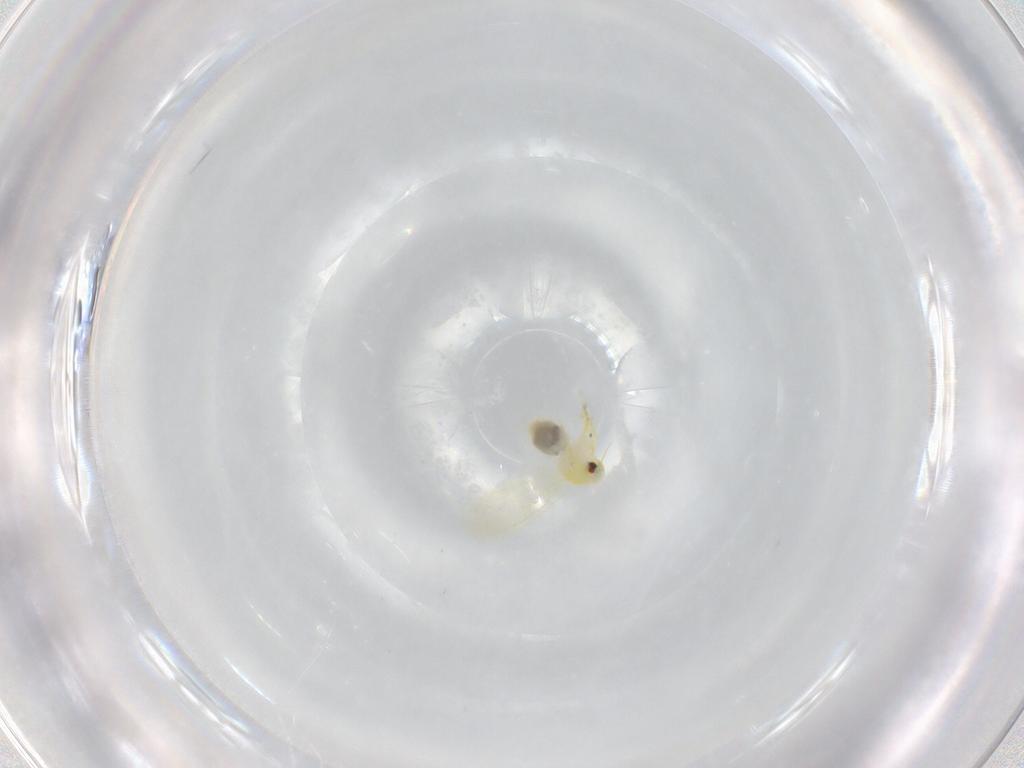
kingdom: Animalia
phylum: Arthropoda
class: Insecta
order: Hemiptera
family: Aleyrodidae
